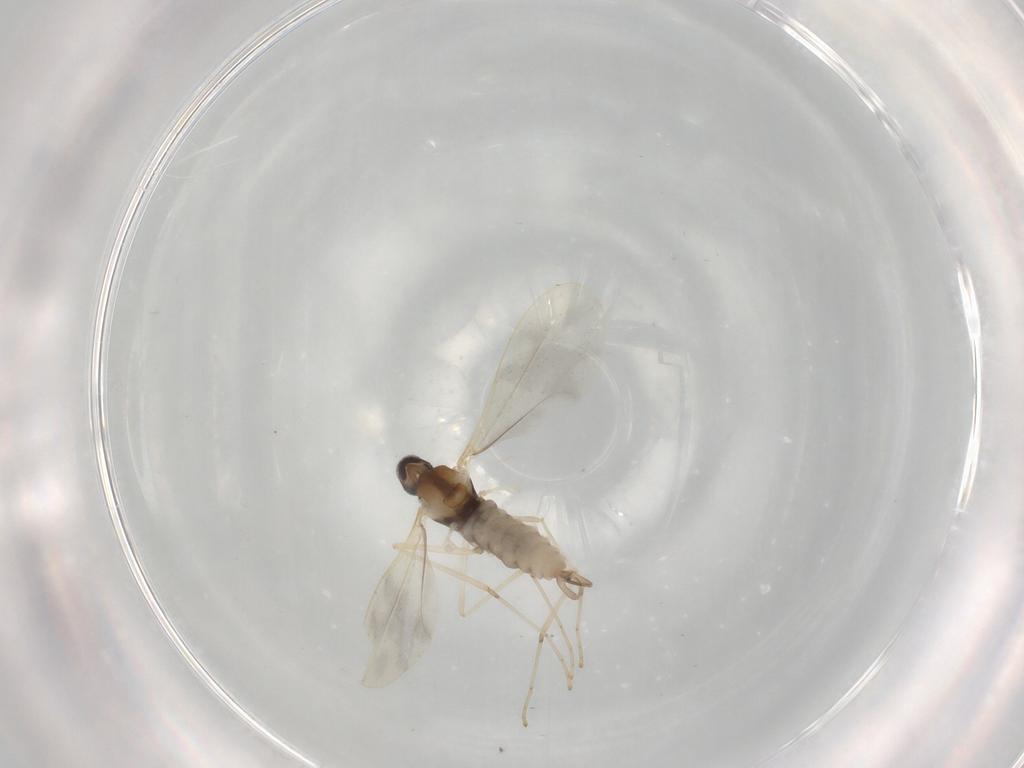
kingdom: Animalia
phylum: Arthropoda
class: Insecta
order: Diptera
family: Cecidomyiidae
